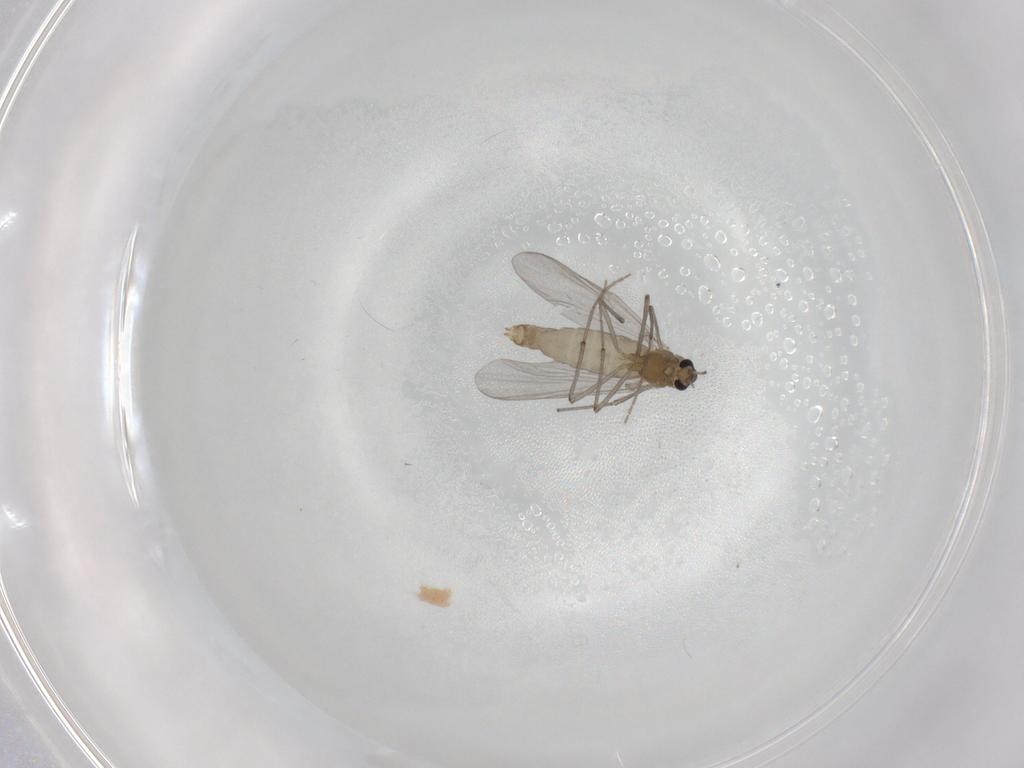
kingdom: Animalia
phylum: Arthropoda
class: Insecta
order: Diptera
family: Chironomidae
